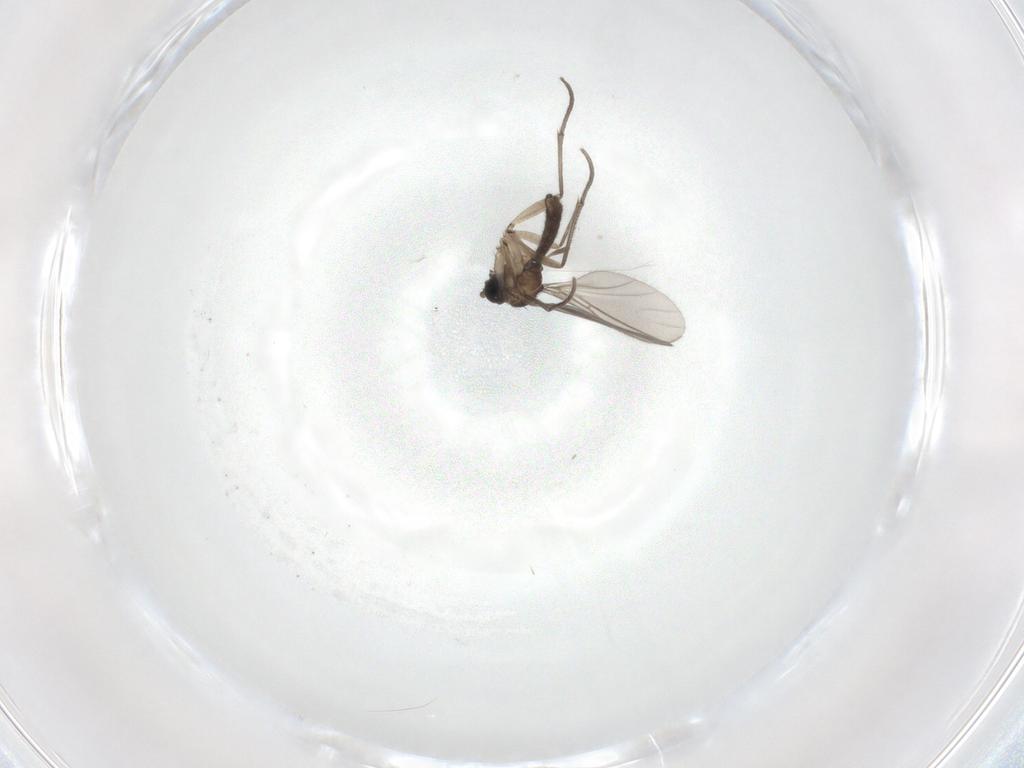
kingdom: Animalia
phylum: Arthropoda
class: Insecta
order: Diptera
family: Sciaridae
